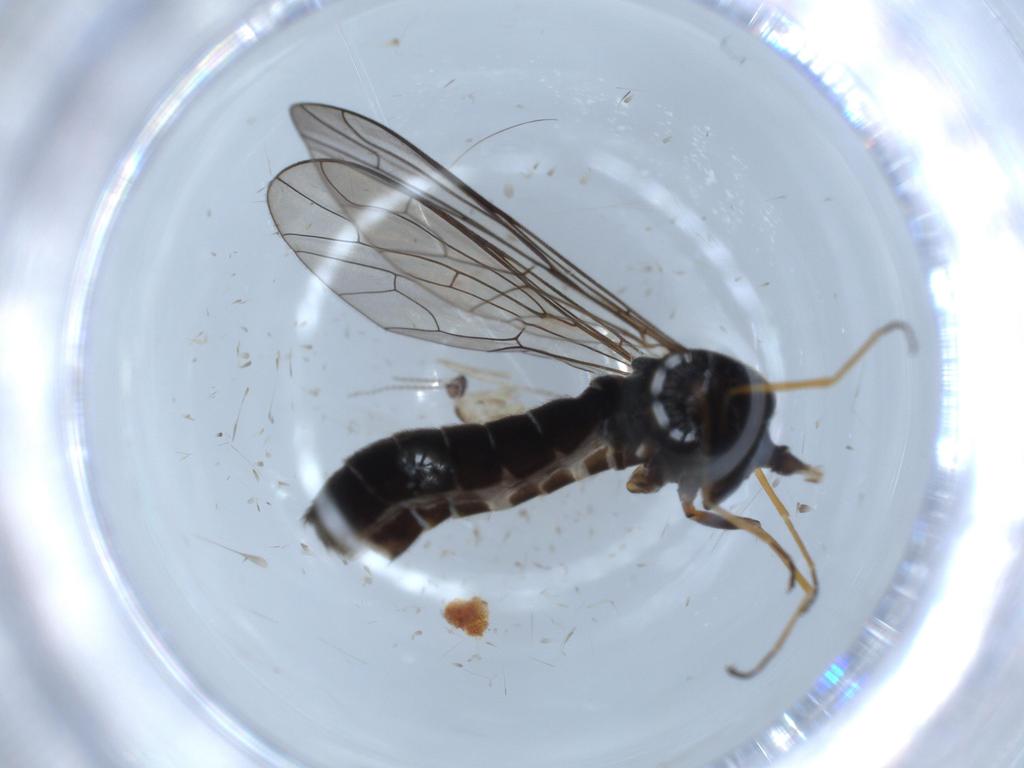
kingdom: Animalia
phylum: Arthropoda
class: Insecta
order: Diptera
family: Bombyliidae
